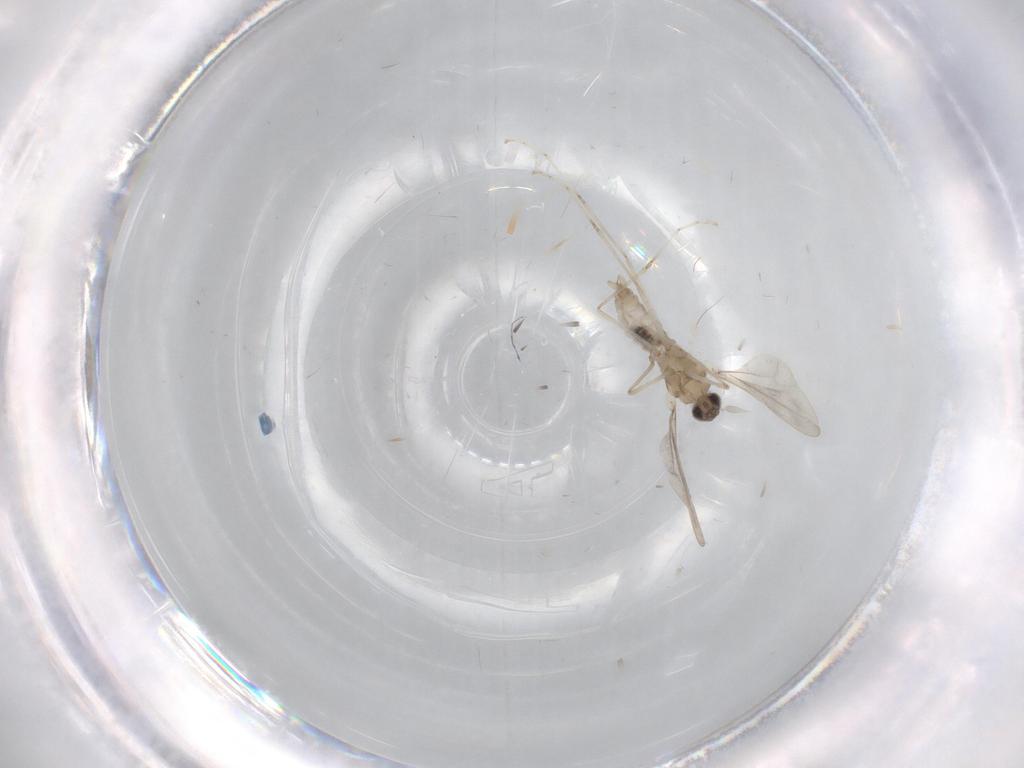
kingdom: Animalia
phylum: Arthropoda
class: Insecta
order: Diptera
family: Cecidomyiidae
